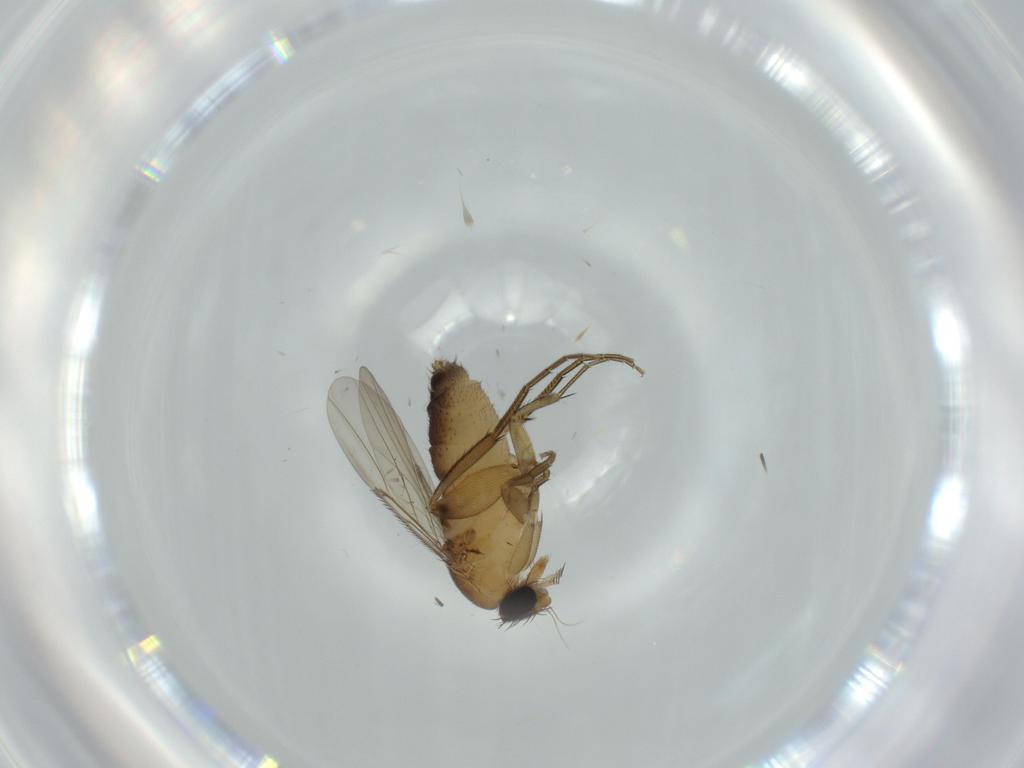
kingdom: Animalia
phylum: Arthropoda
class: Insecta
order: Diptera
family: Phoridae
